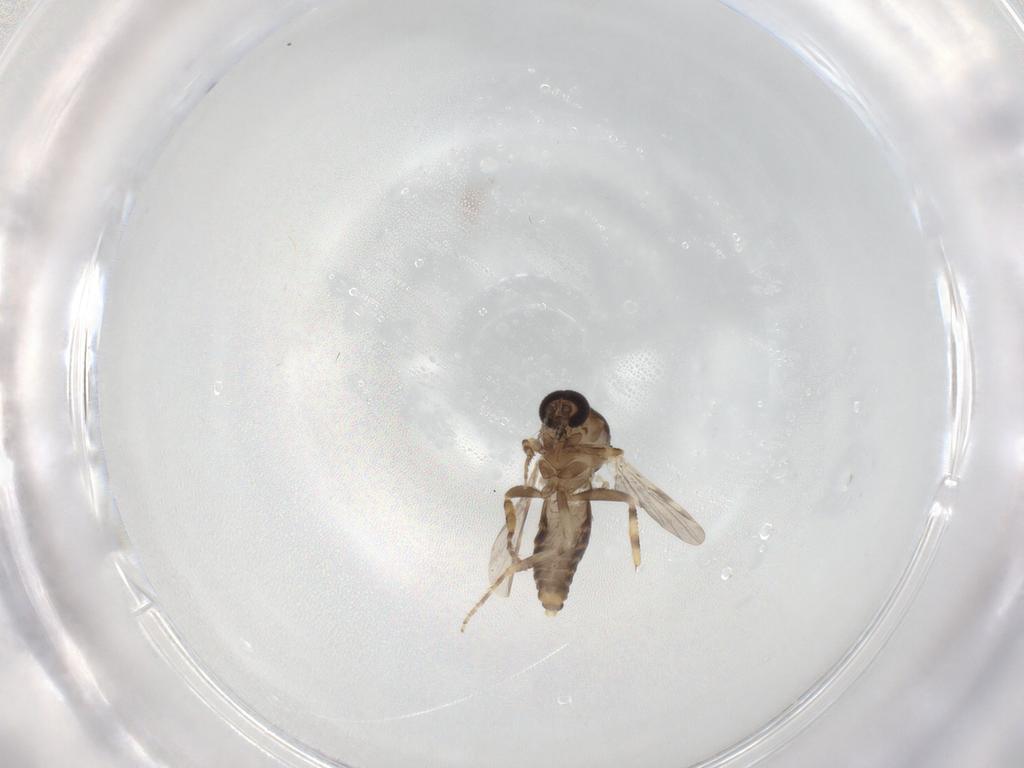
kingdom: Animalia
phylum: Arthropoda
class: Insecta
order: Diptera
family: Ceratopogonidae
